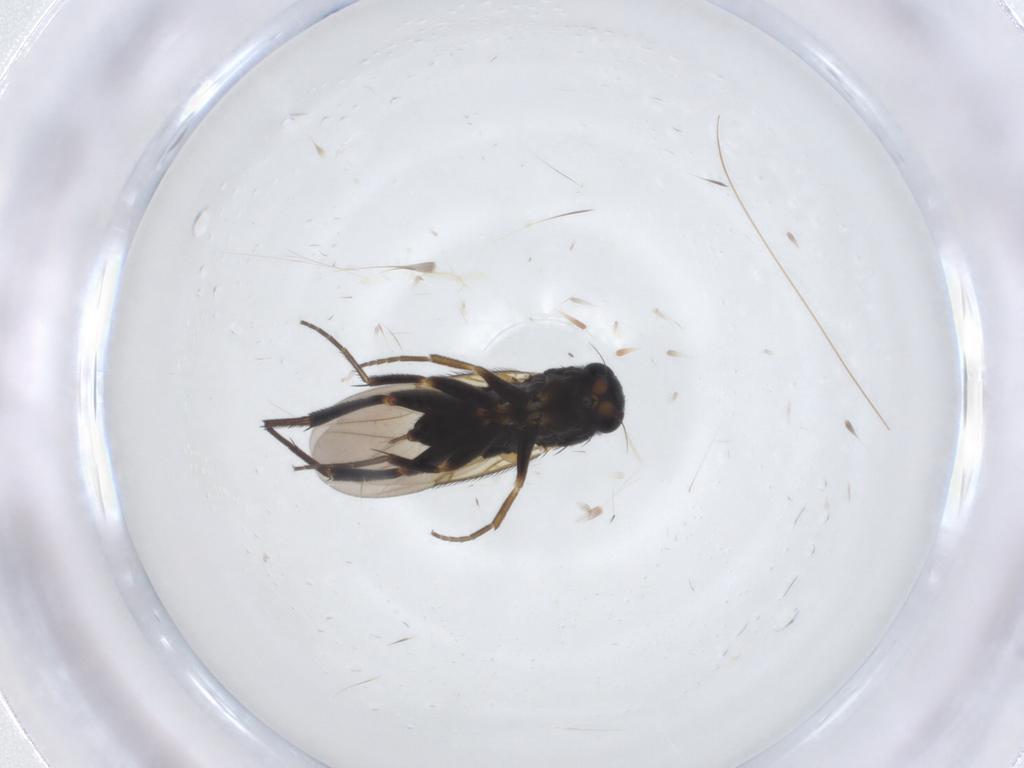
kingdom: Animalia
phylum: Arthropoda
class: Insecta
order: Diptera
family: Phoridae
